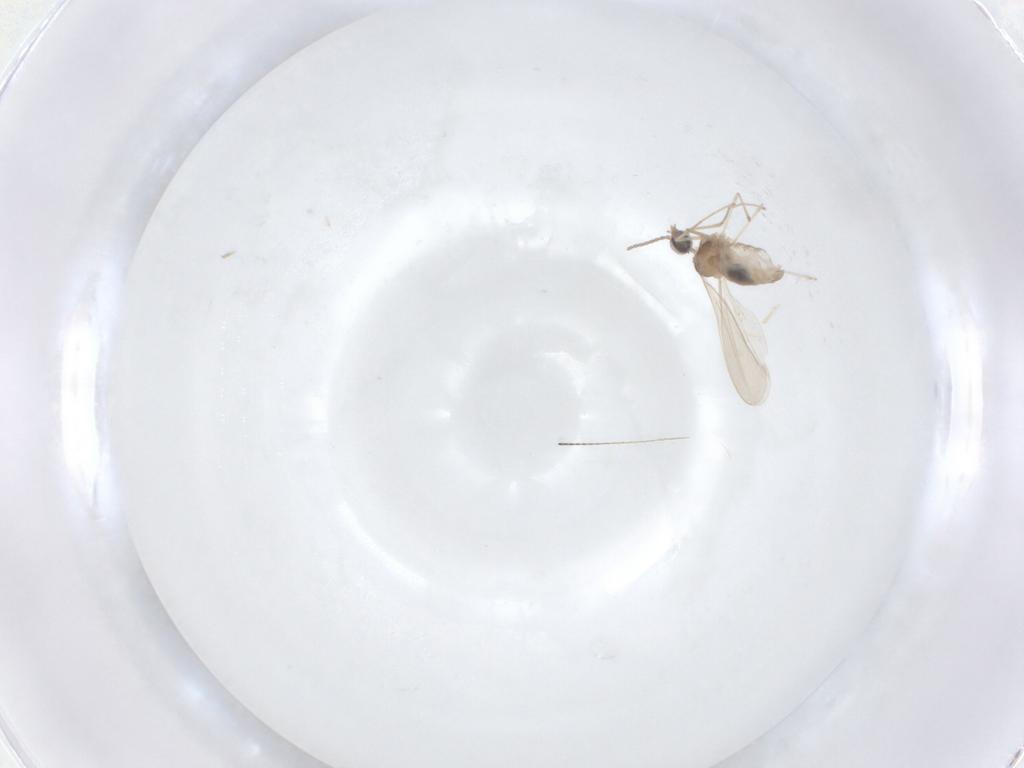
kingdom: Animalia
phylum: Arthropoda
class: Insecta
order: Diptera
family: Cecidomyiidae
